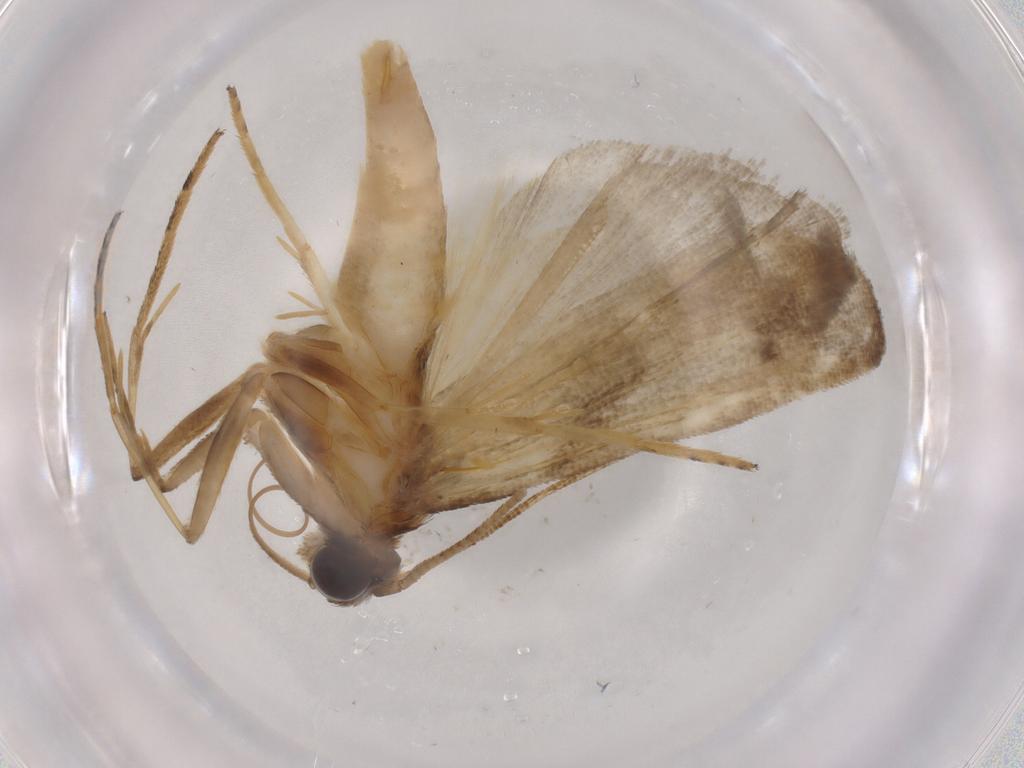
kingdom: Animalia
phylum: Arthropoda
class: Insecta
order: Lepidoptera
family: Noctuidae
